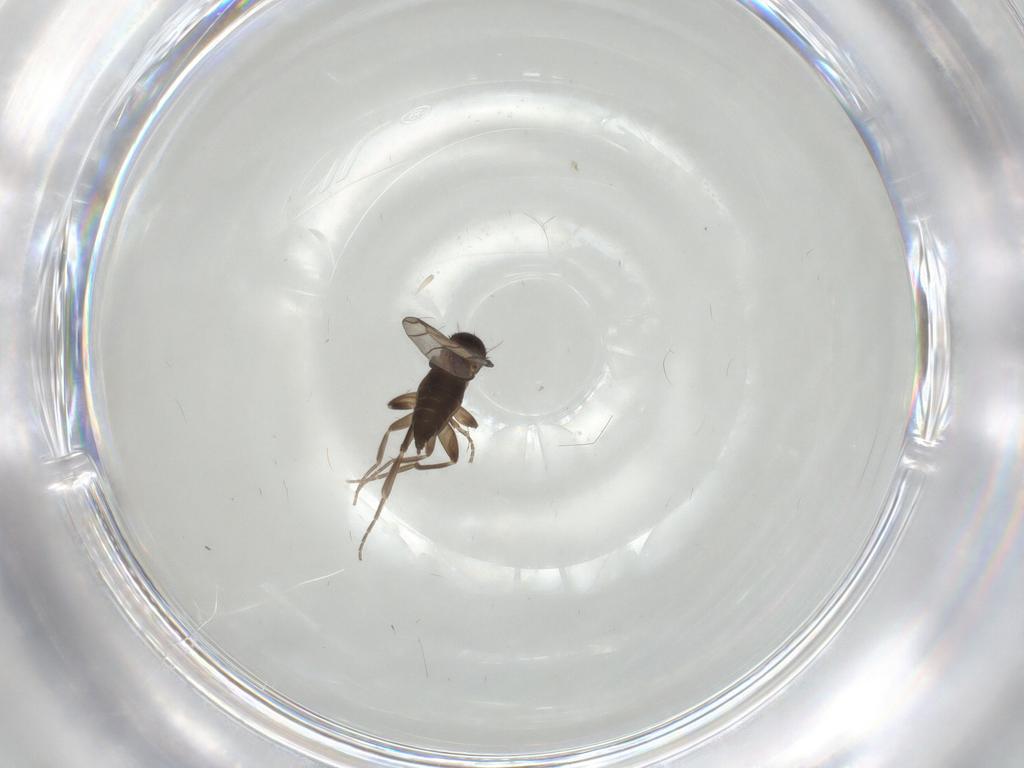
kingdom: Animalia
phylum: Arthropoda
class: Insecta
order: Diptera
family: Phoridae
